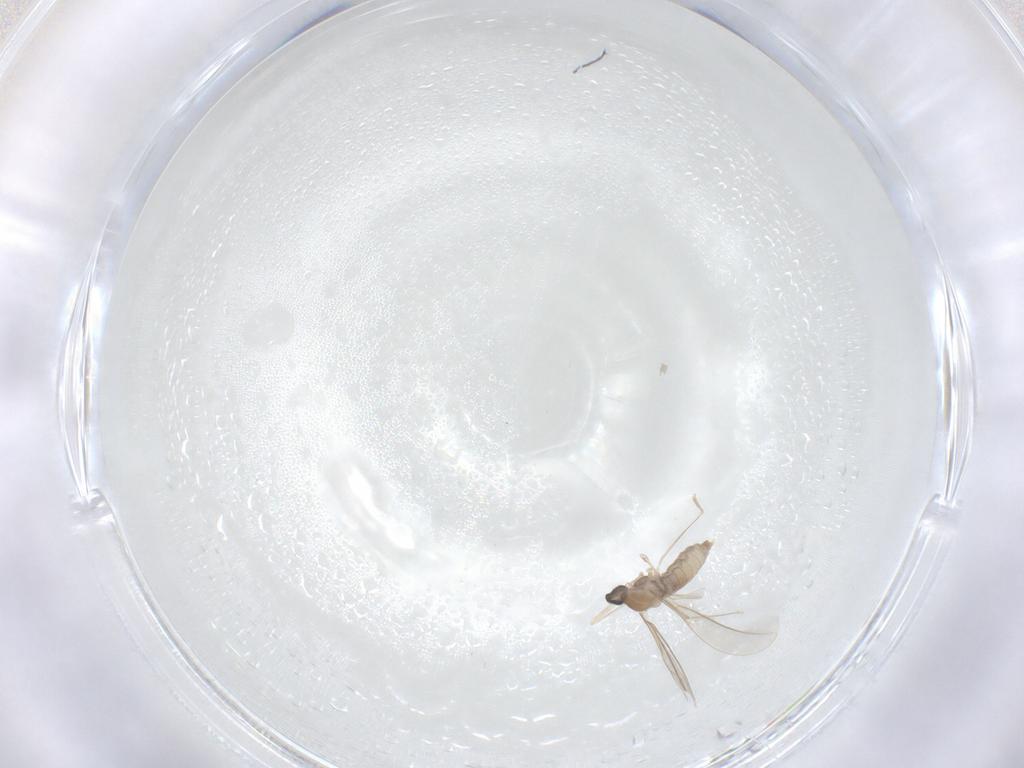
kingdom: Animalia
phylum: Arthropoda
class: Insecta
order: Diptera
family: Cecidomyiidae
